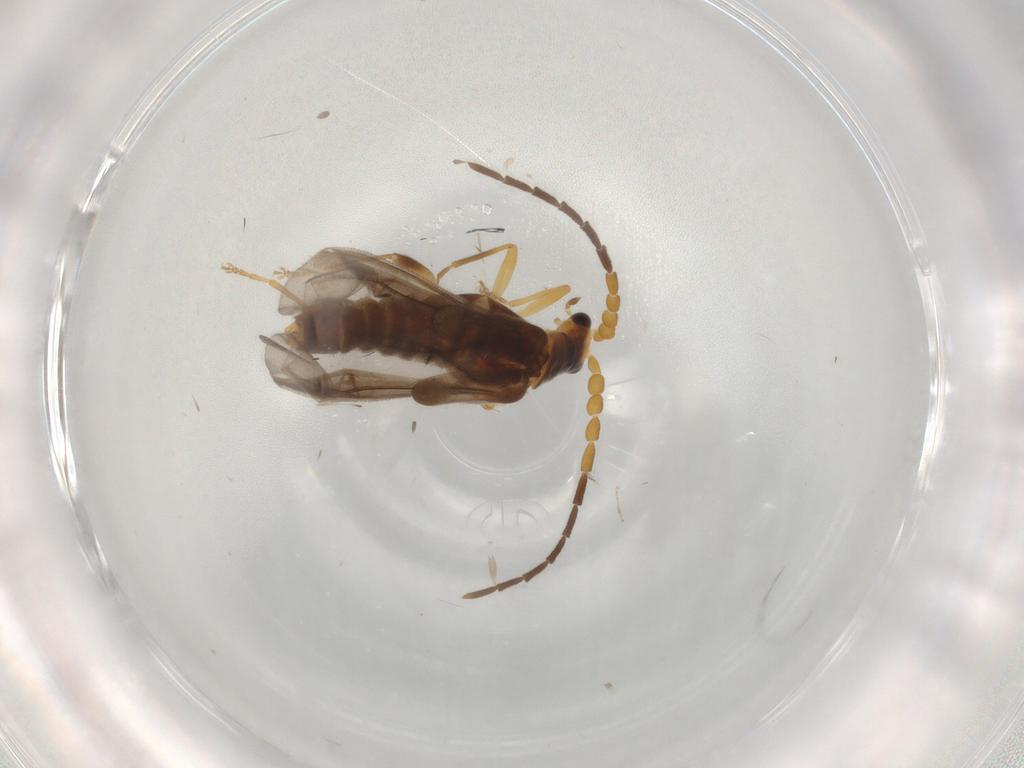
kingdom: Animalia
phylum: Arthropoda
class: Insecta
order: Coleoptera
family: Cantharidae
